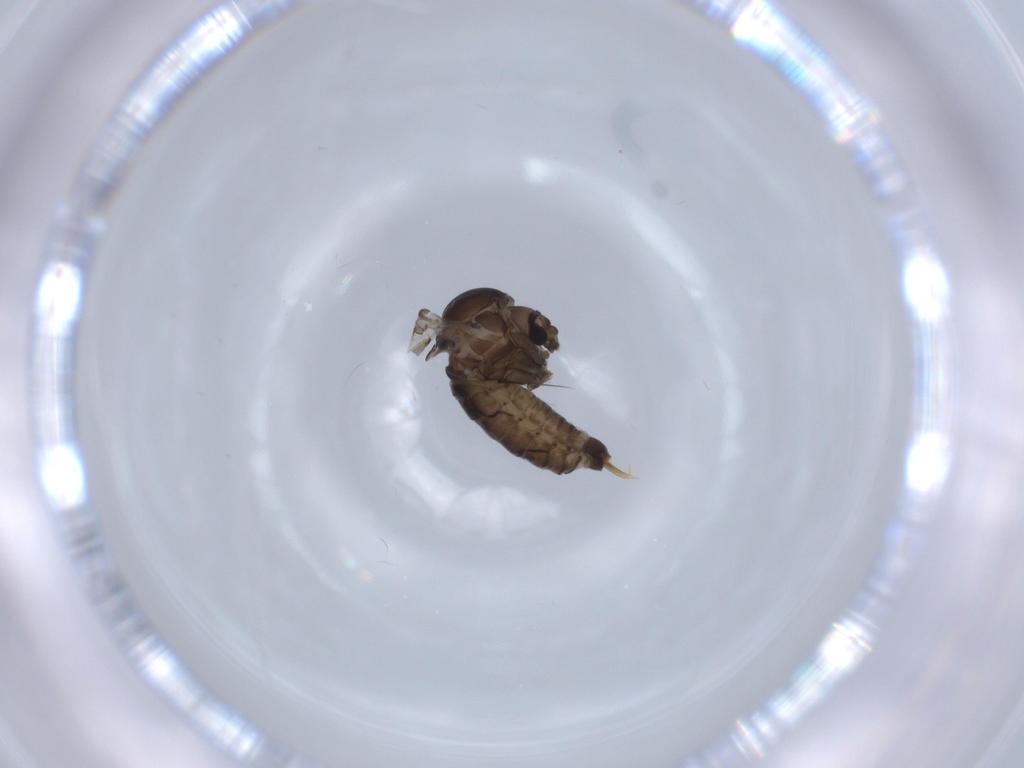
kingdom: Animalia
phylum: Arthropoda
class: Insecta
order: Diptera
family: Psychodidae
